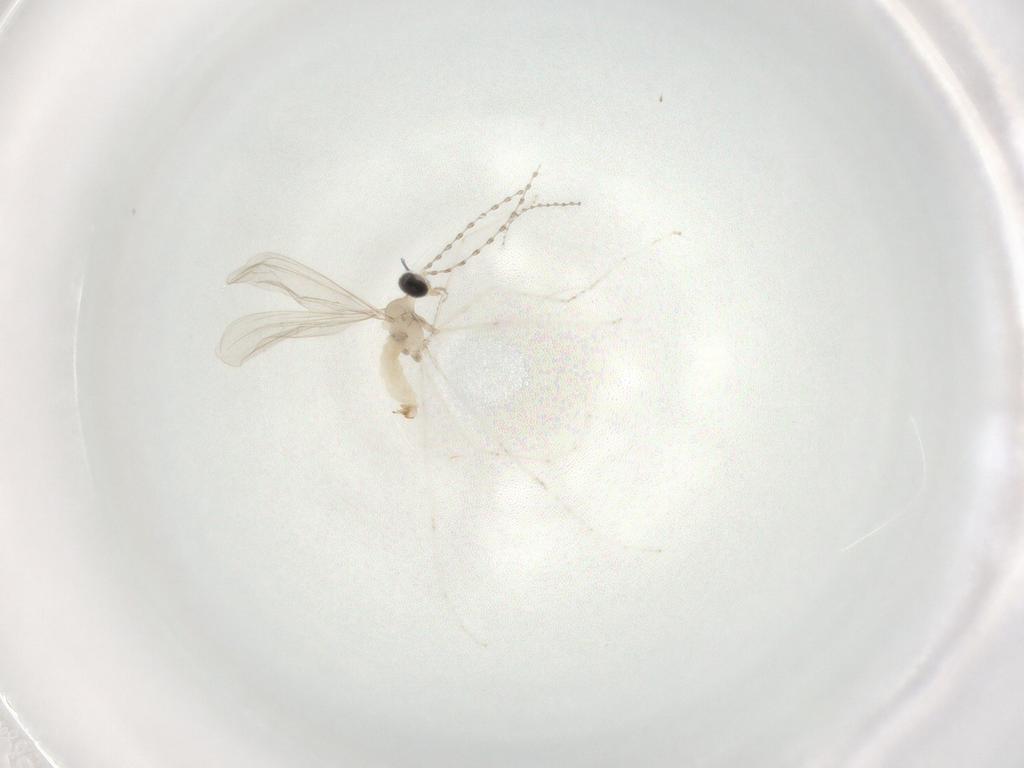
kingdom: Animalia
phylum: Arthropoda
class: Insecta
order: Diptera
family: Cecidomyiidae
